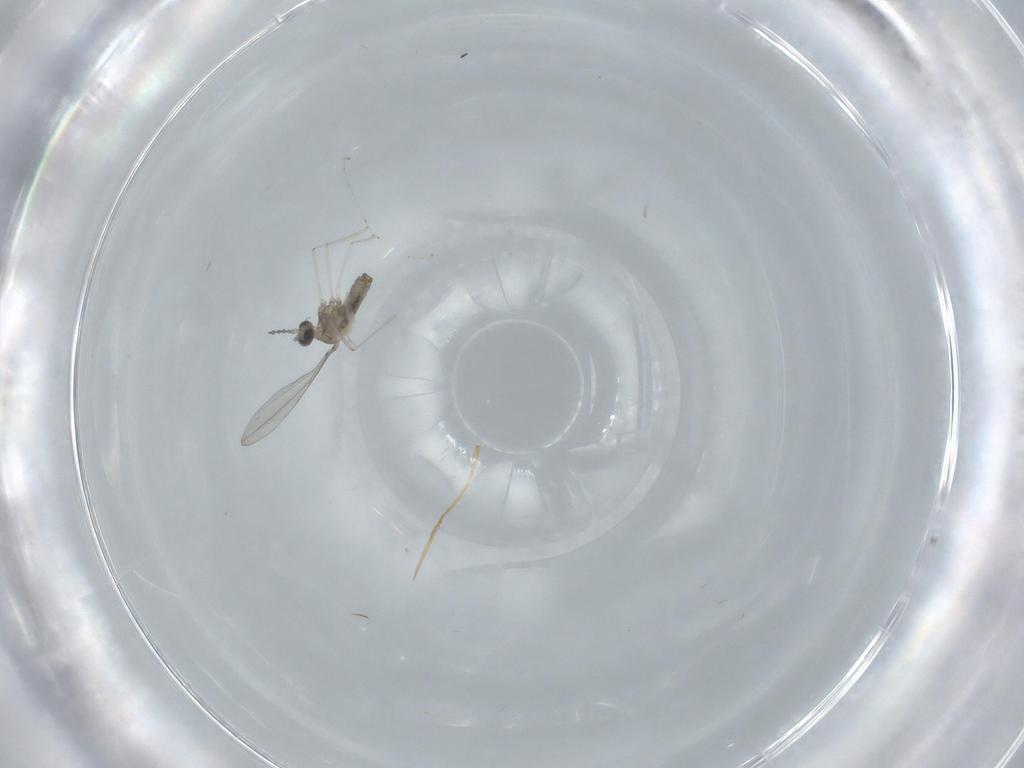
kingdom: Animalia
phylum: Arthropoda
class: Insecta
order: Diptera
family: Cecidomyiidae
